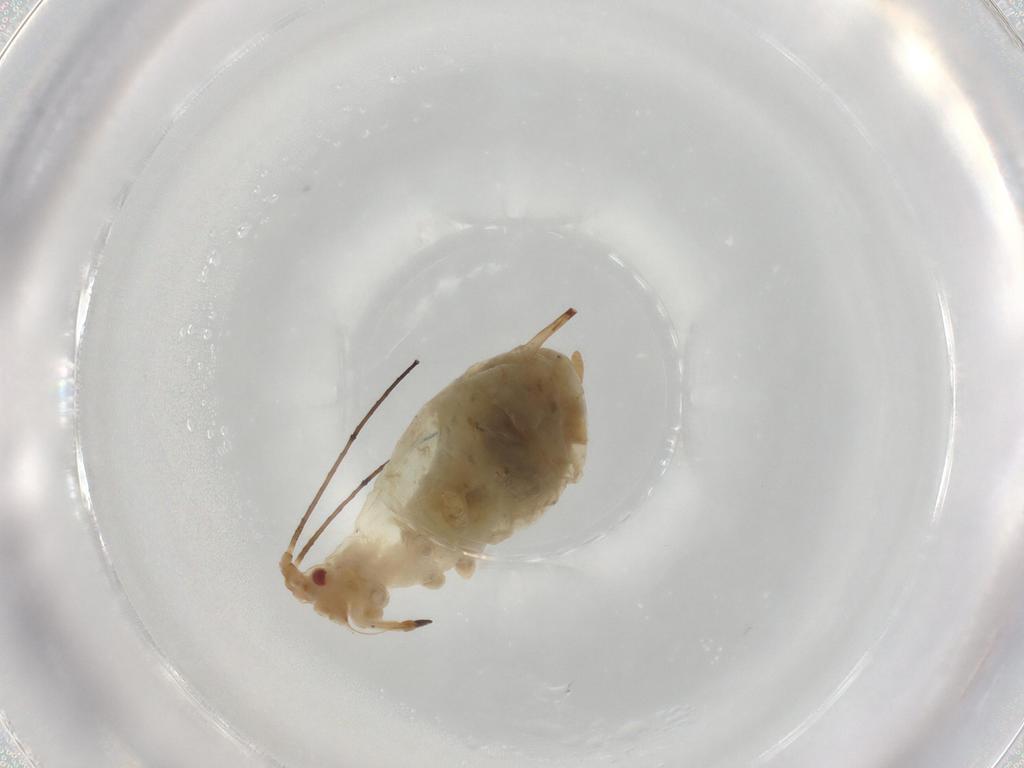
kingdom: Animalia
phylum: Arthropoda
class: Insecta
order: Hemiptera
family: Aphididae
